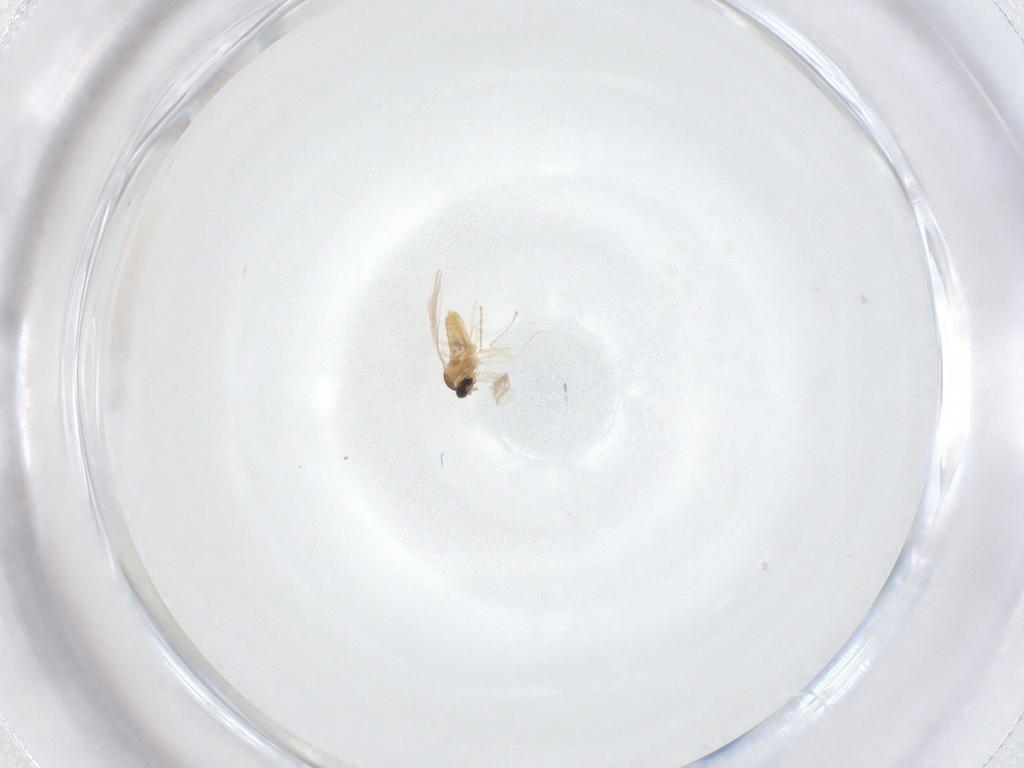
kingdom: Animalia
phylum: Arthropoda
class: Insecta
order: Diptera
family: Cecidomyiidae
